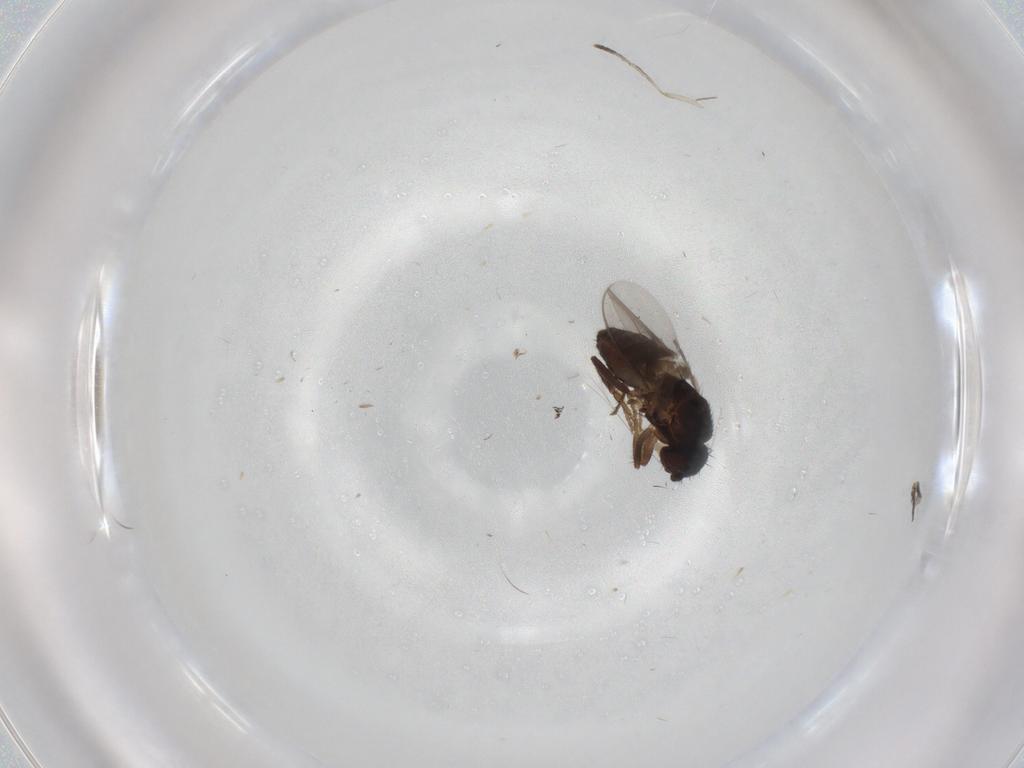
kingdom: Animalia
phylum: Arthropoda
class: Insecta
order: Diptera
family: Sphaeroceridae
